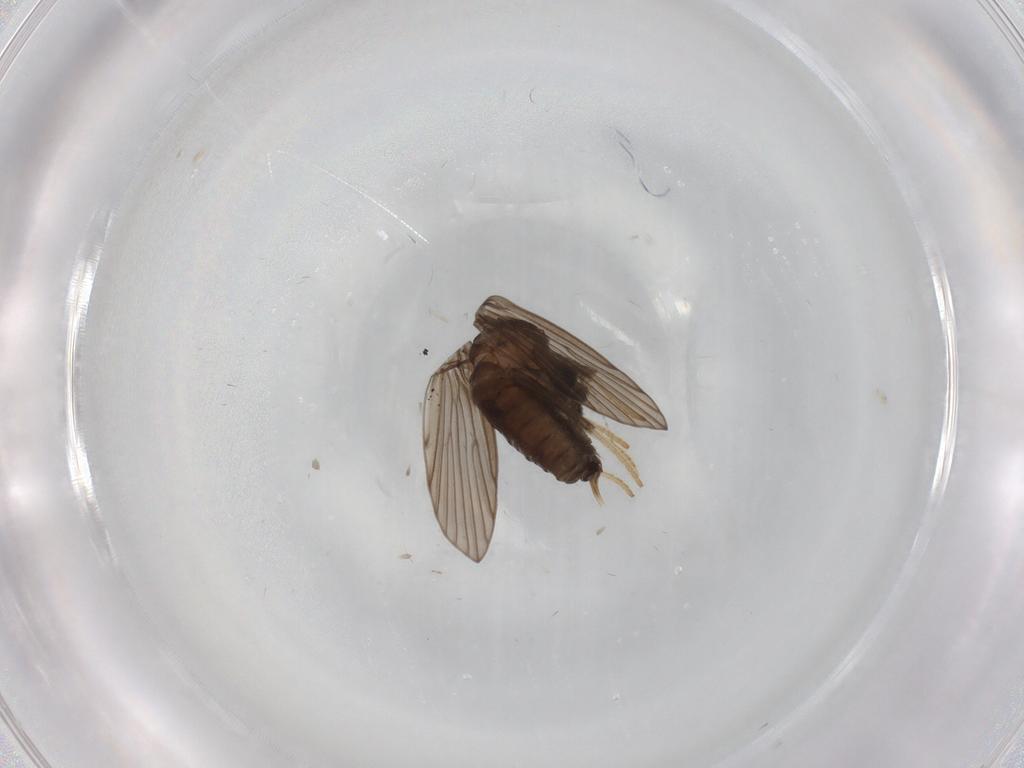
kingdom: Animalia
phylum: Arthropoda
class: Insecta
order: Diptera
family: Psychodidae
